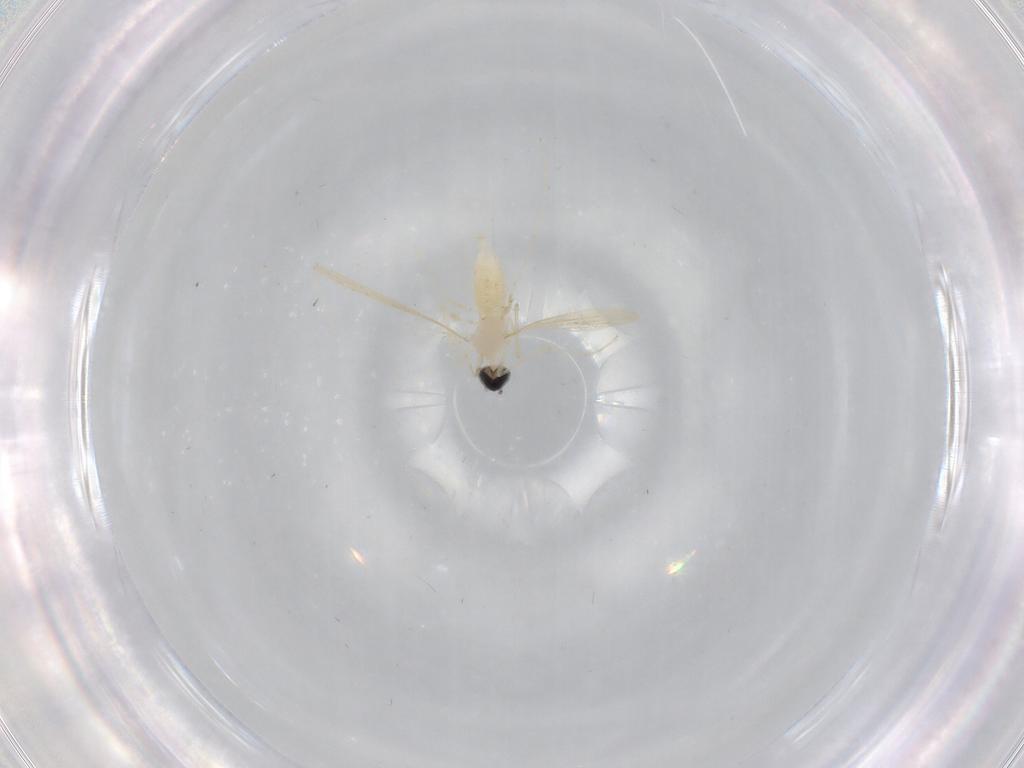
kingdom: Animalia
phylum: Arthropoda
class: Insecta
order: Diptera
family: Cecidomyiidae
